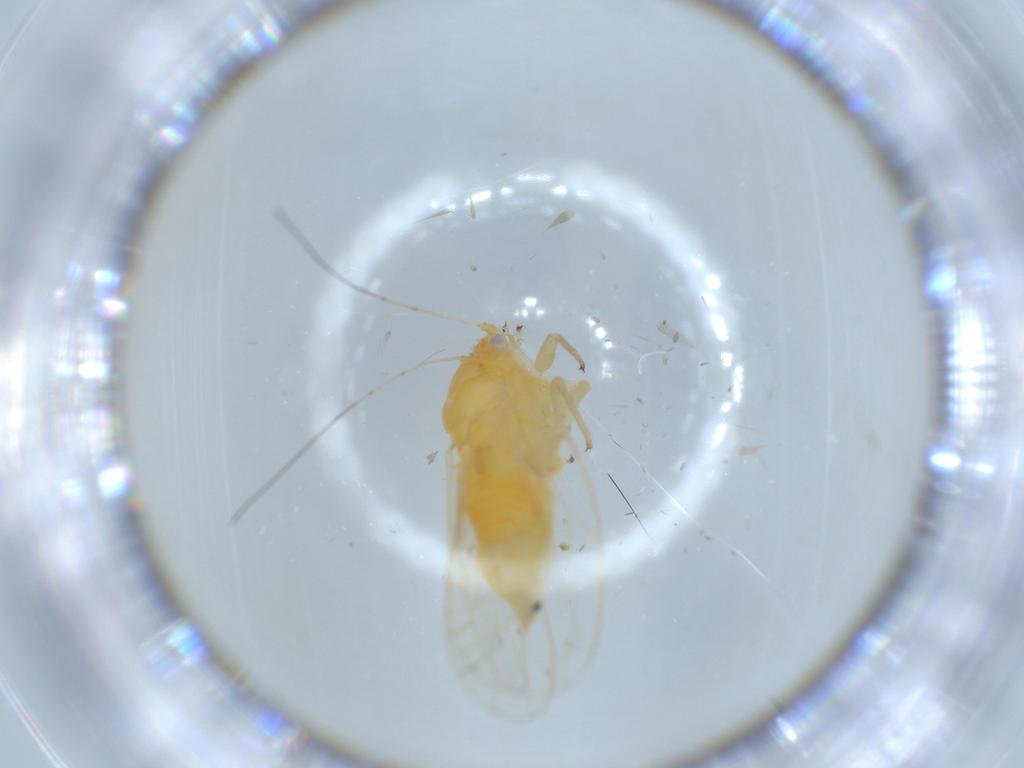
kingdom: Animalia
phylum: Arthropoda
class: Insecta
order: Hemiptera
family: Psyllidae
